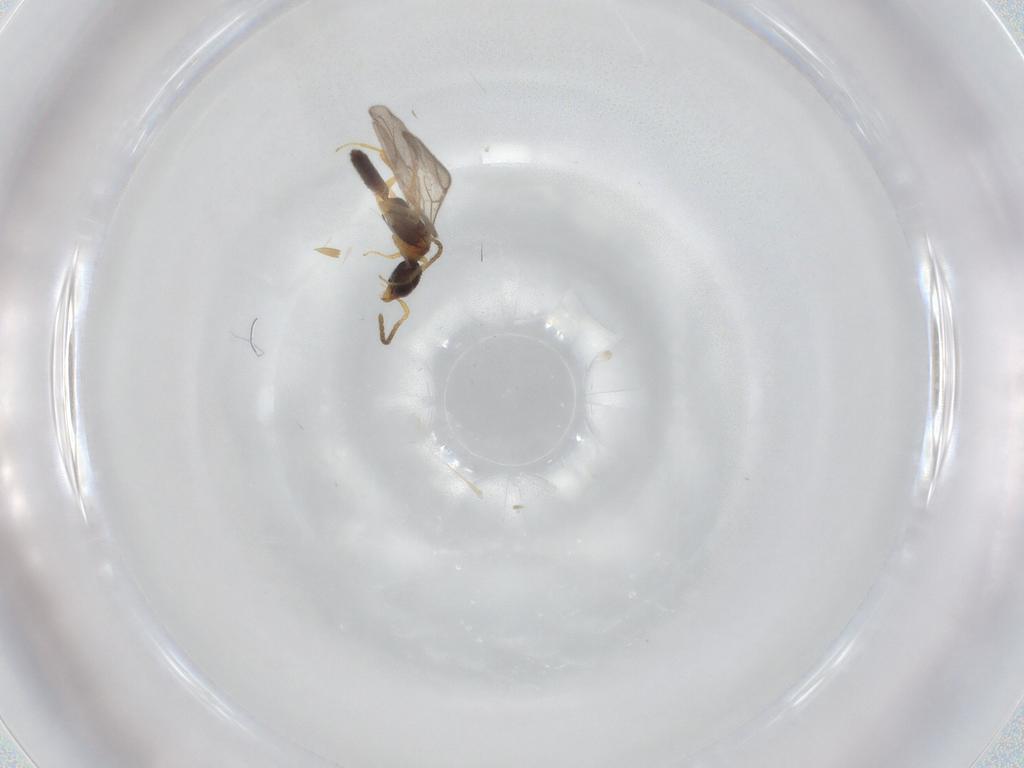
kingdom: Animalia
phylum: Arthropoda
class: Insecta
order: Hymenoptera
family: Bethylidae
